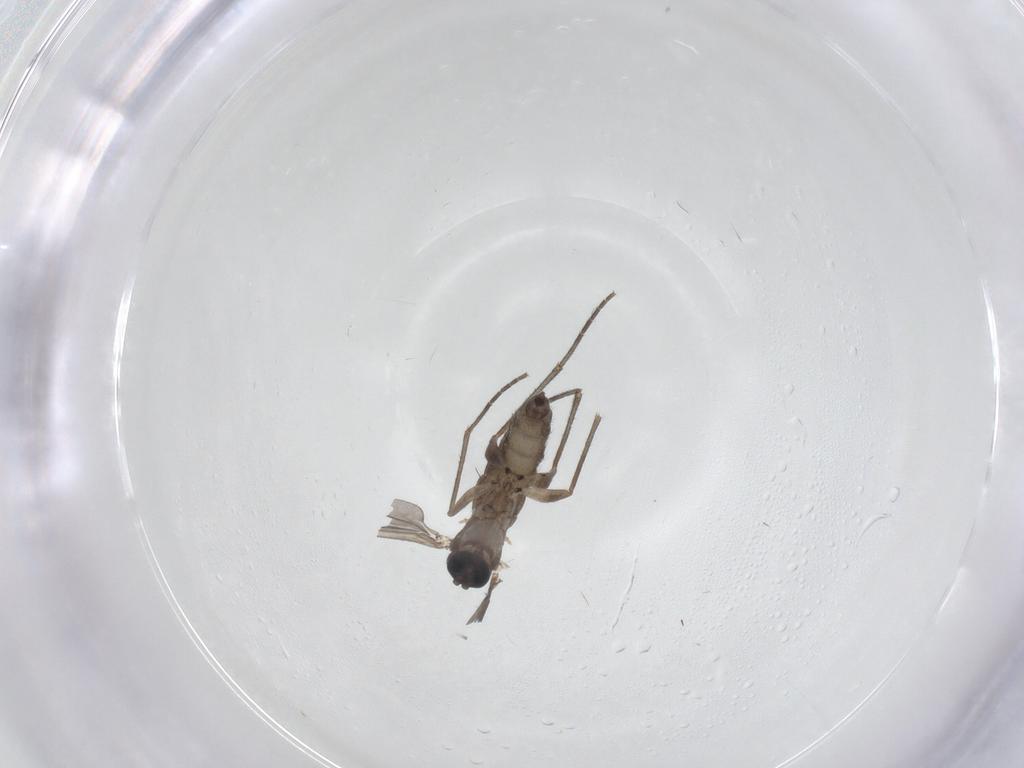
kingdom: Animalia
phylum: Arthropoda
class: Insecta
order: Diptera
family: Sciaridae
